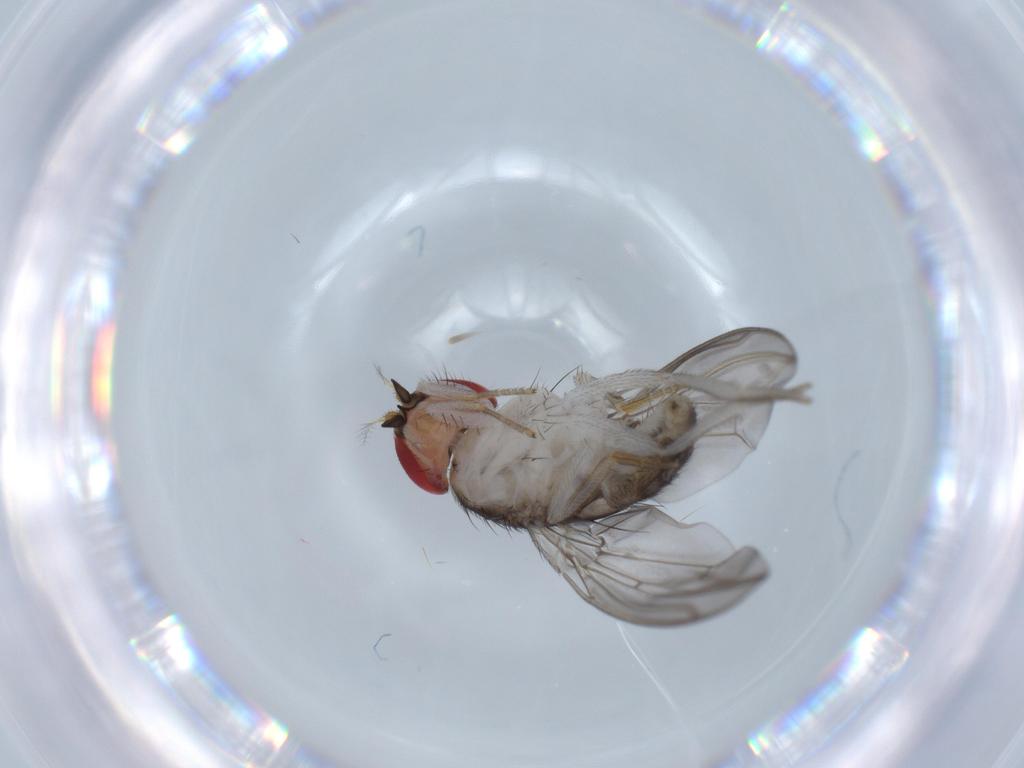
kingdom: Animalia
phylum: Arthropoda
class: Insecta
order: Diptera
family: Drosophilidae
